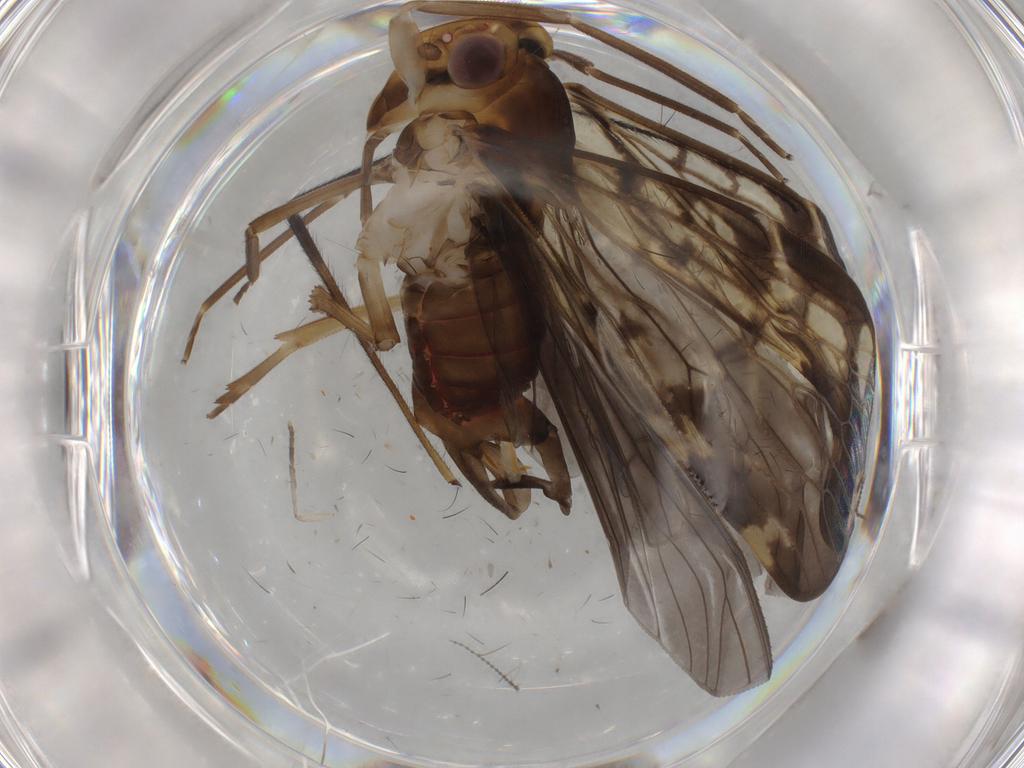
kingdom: Animalia
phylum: Arthropoda
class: Insecta
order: Hemiptera
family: Cixiidae
